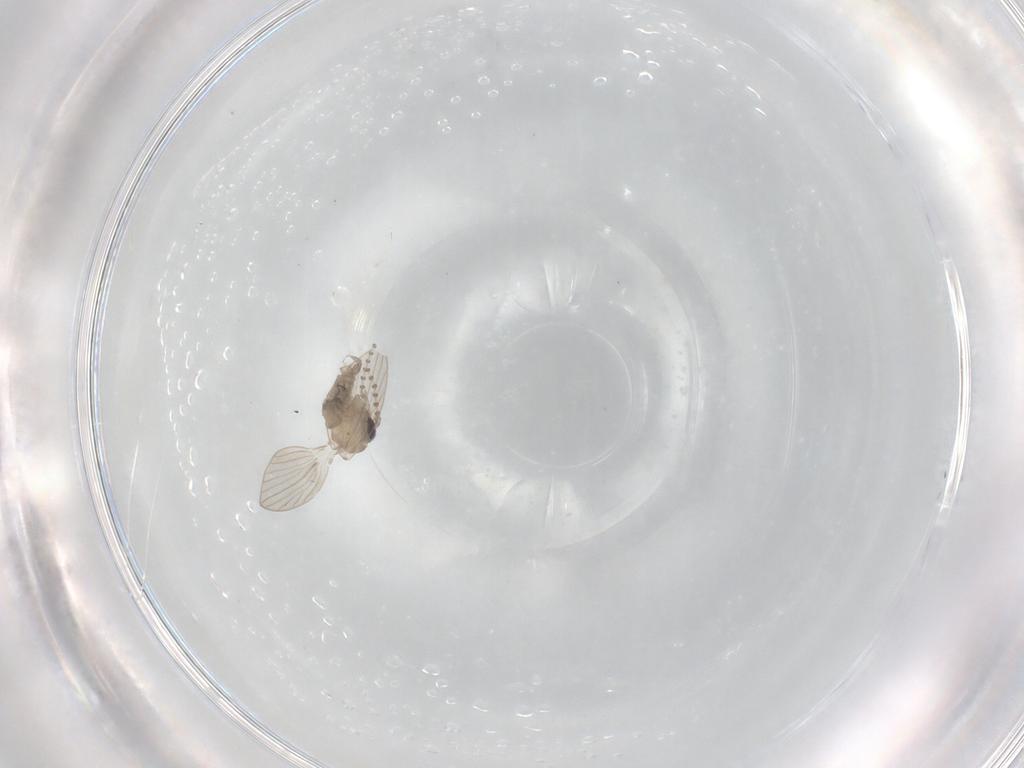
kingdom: Animalia
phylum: Arthropoda
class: Insecta
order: Diptera
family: Psychodidae
